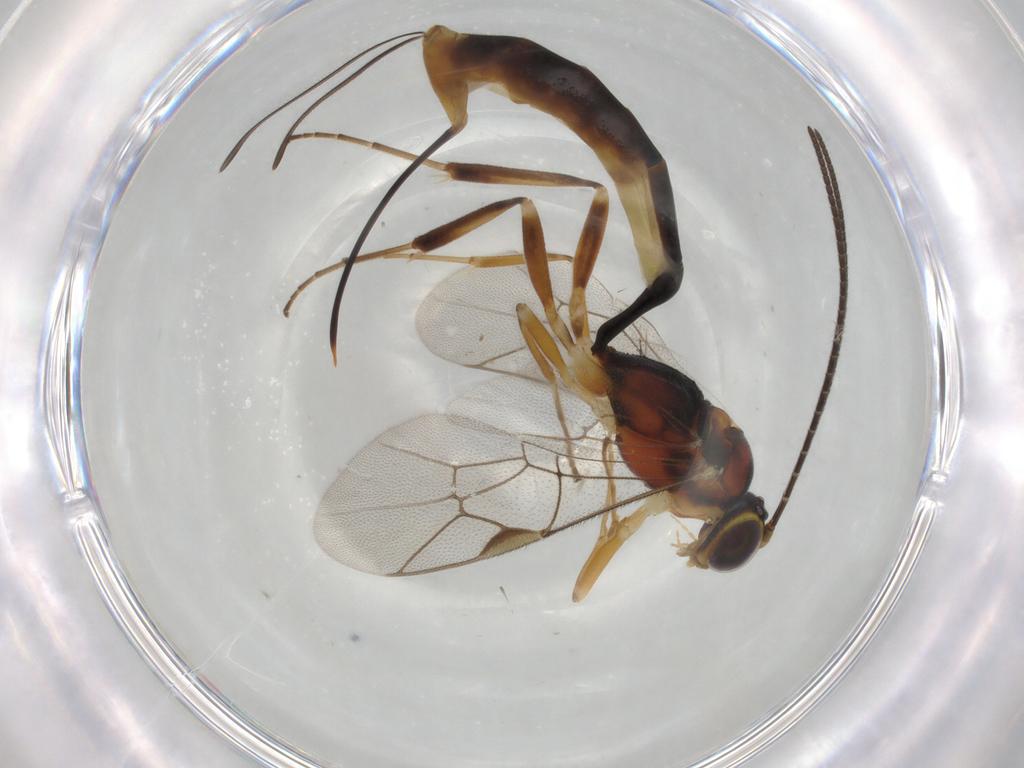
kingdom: Animalia
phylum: Arthropoda
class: Insecta
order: Hymenoptera
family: Ichneumonidae
